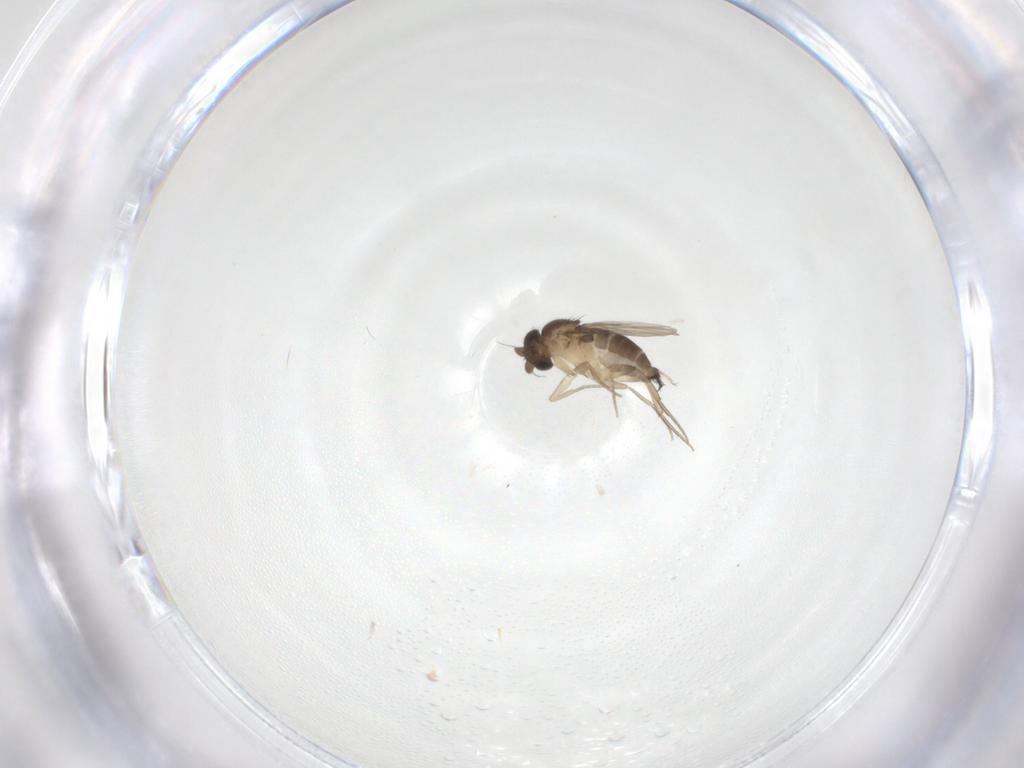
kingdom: Animalia
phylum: Arthropoda
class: Insecta
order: Diptera
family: Phoridae
